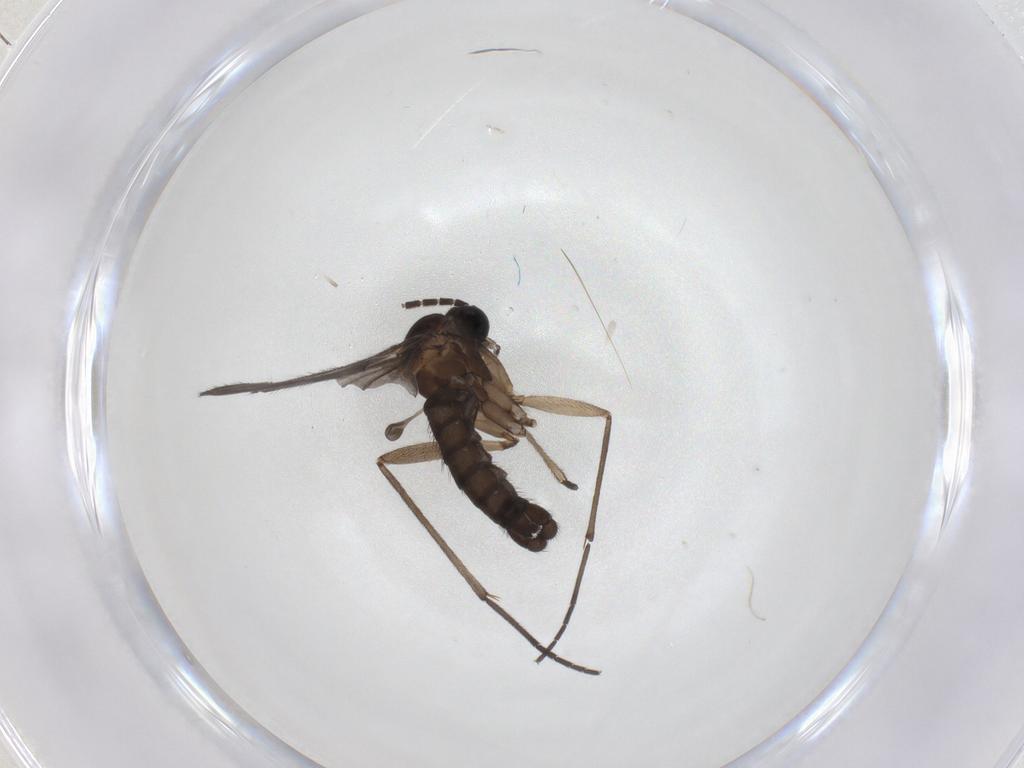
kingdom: Animalia
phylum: Arthropoda
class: Insecta
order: Diptera
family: Sciaridae
